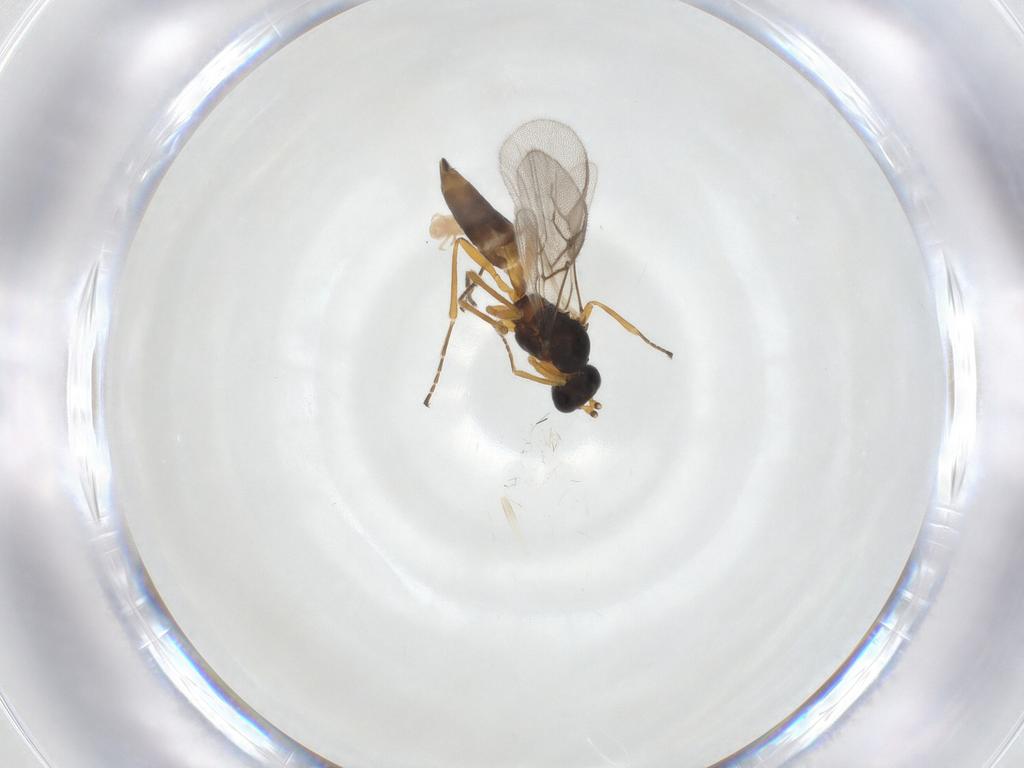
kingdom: Animalia
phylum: Arthropoda
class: Insecta
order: Hymenoptera
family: Braconidae
